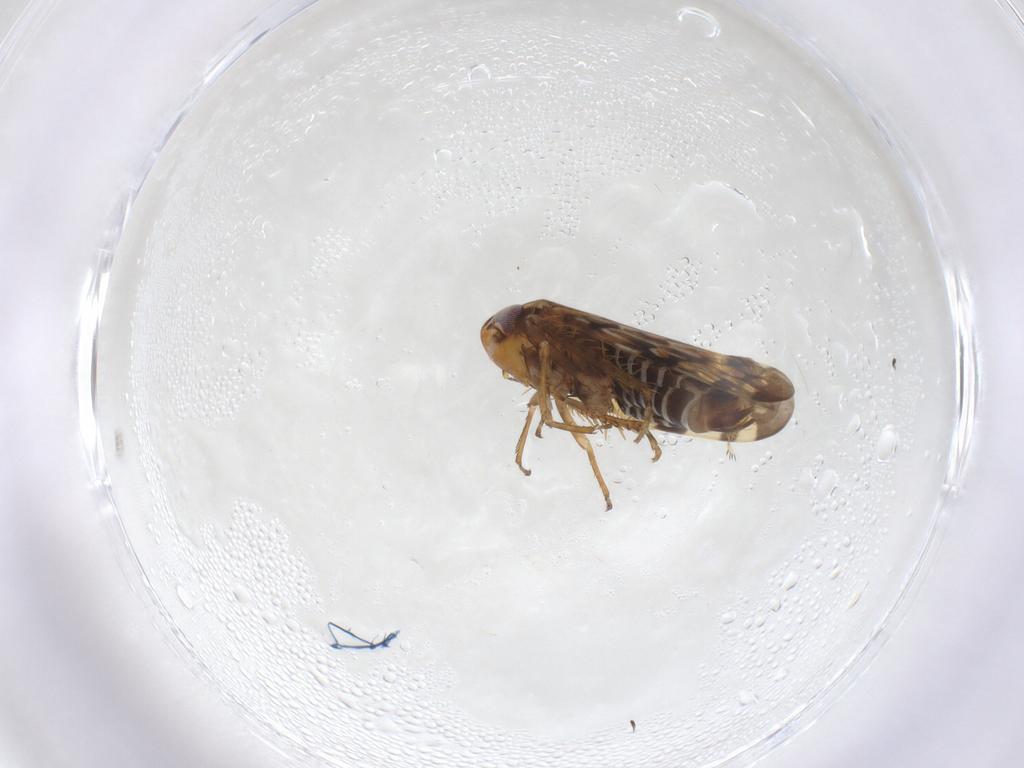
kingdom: Animalia
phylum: Arthropoda
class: Insecta
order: Hemiptera
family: Cicadellidae
